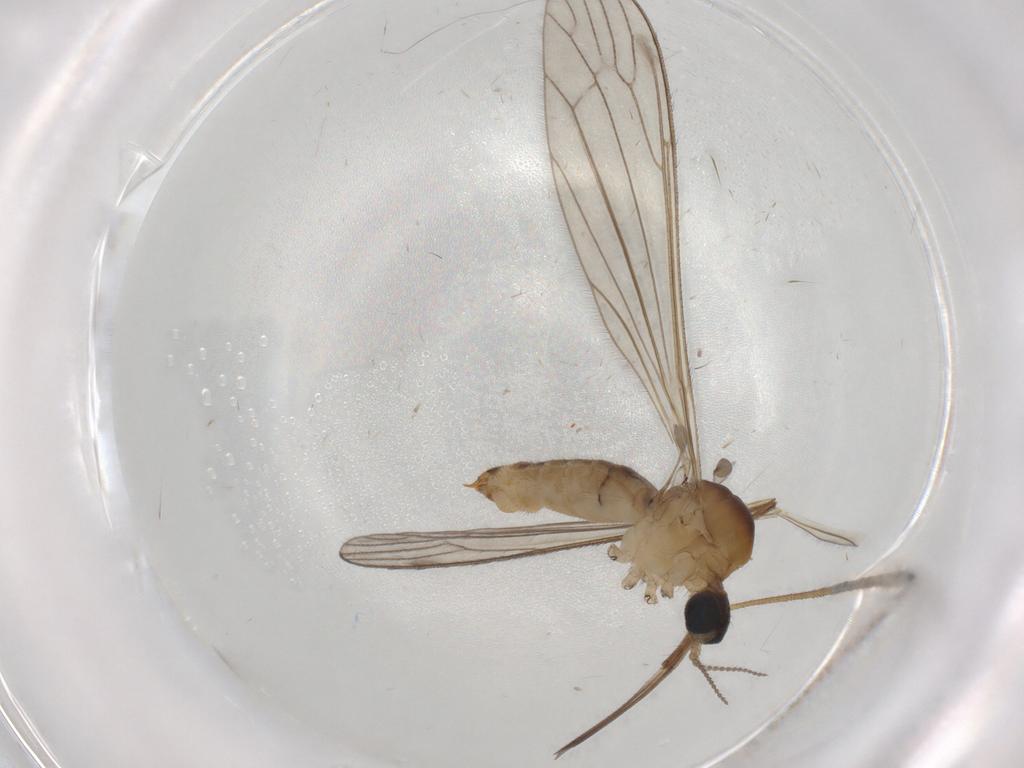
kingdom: Animalia
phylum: Arthropoda
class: Insecta
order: Diptera
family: Limoniidae
